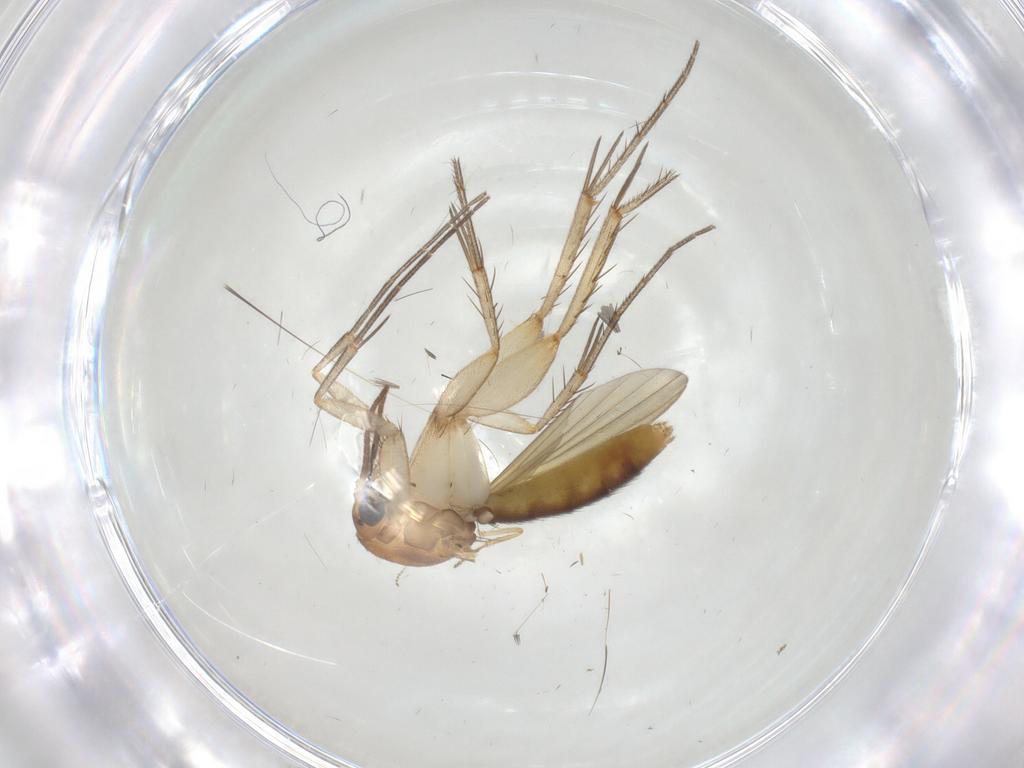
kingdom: Animalia
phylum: Arthropoda
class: Insecta
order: Diptera
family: Mycetophilidae
